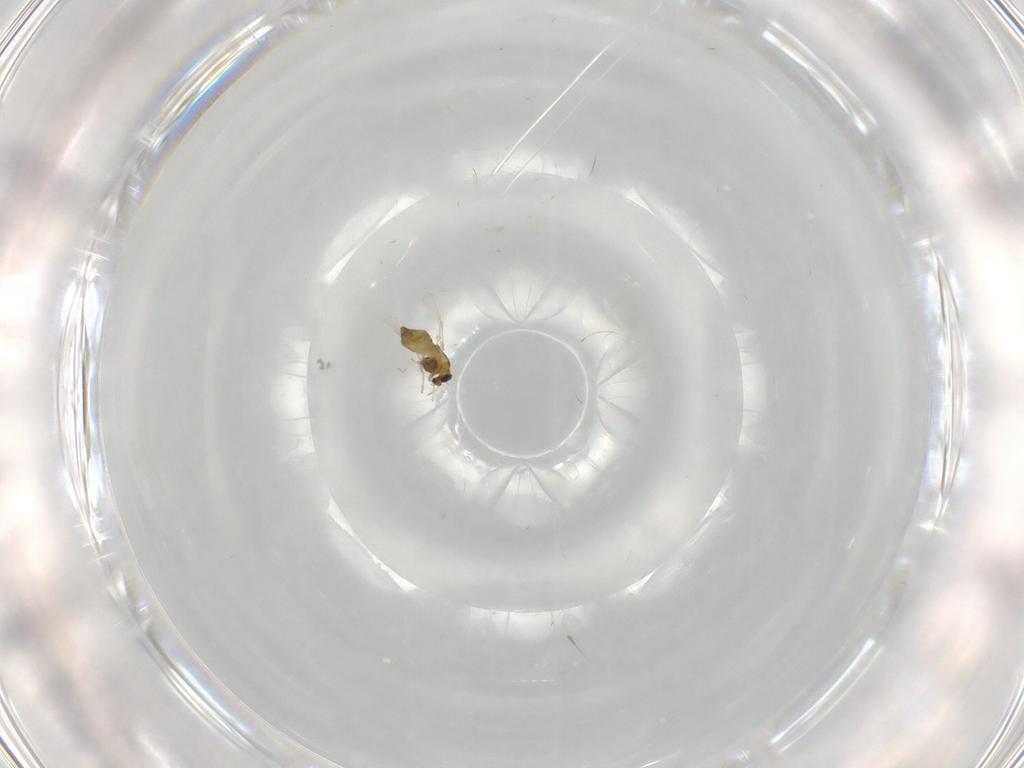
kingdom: Animalia
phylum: Arthropoda
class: Insecta
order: Diptera
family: Chironomidae
